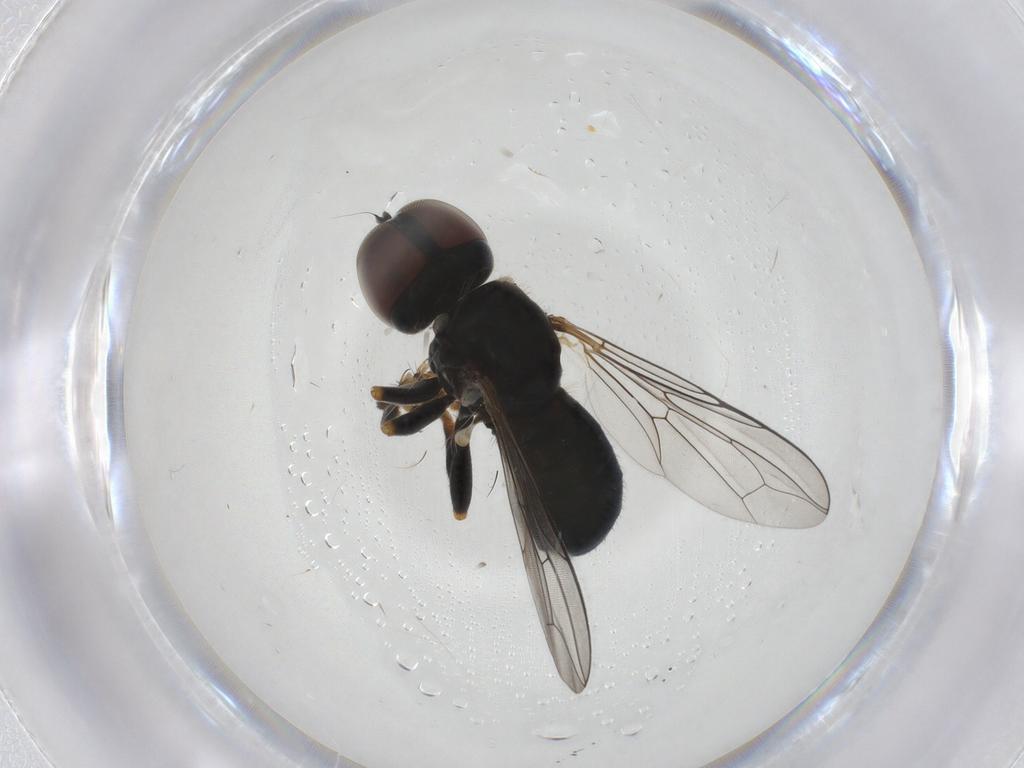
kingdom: Animalia
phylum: Arthropoda
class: Insecta
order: Diptera
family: Pipunculidae
